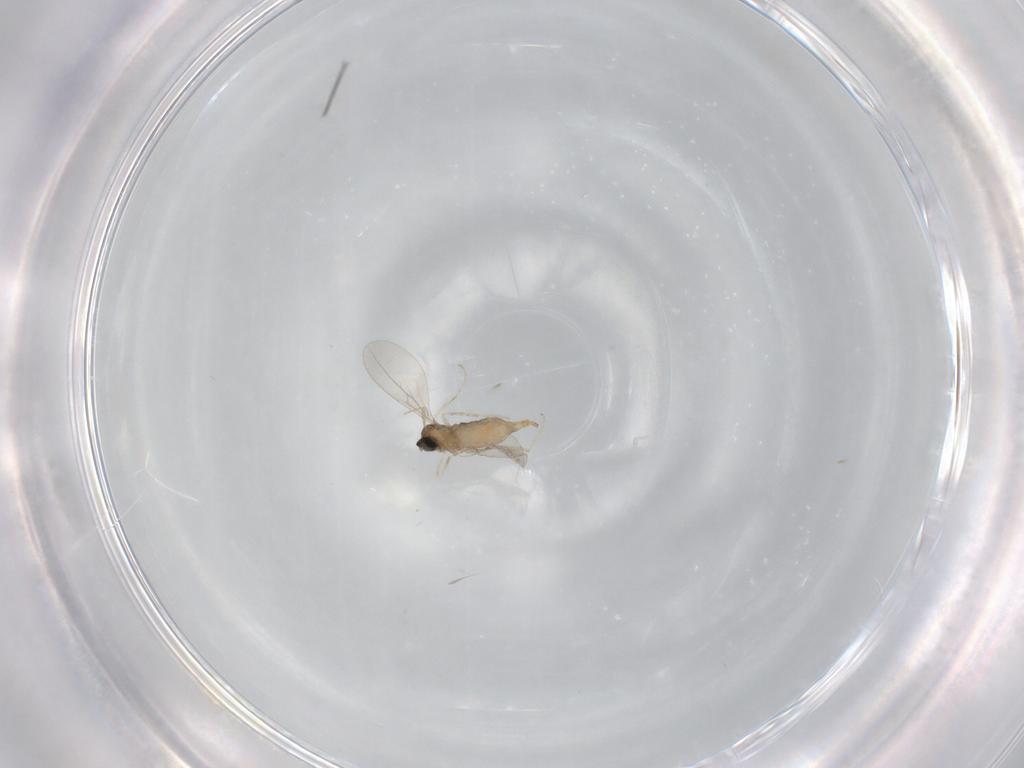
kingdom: Animalia
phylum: Arthropoda
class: Insecta
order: Diptera
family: Cecidomyiidae
